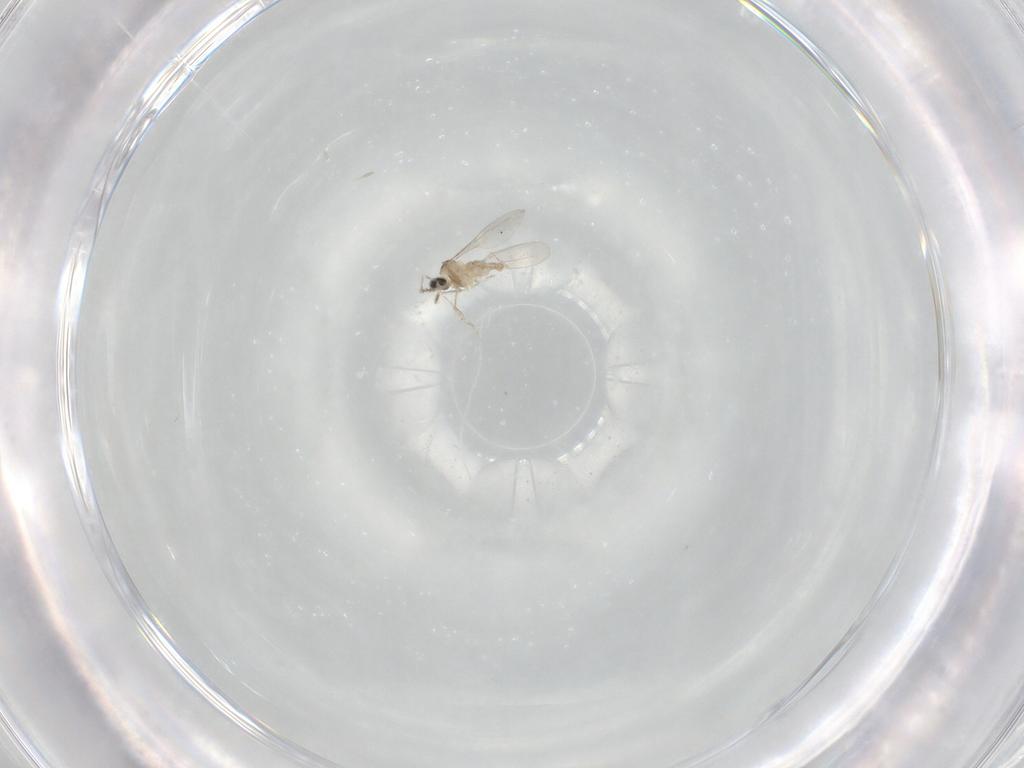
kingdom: Animalia
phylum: Arthropoda
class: Insecta
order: Diptera
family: Cecidomyiidae
